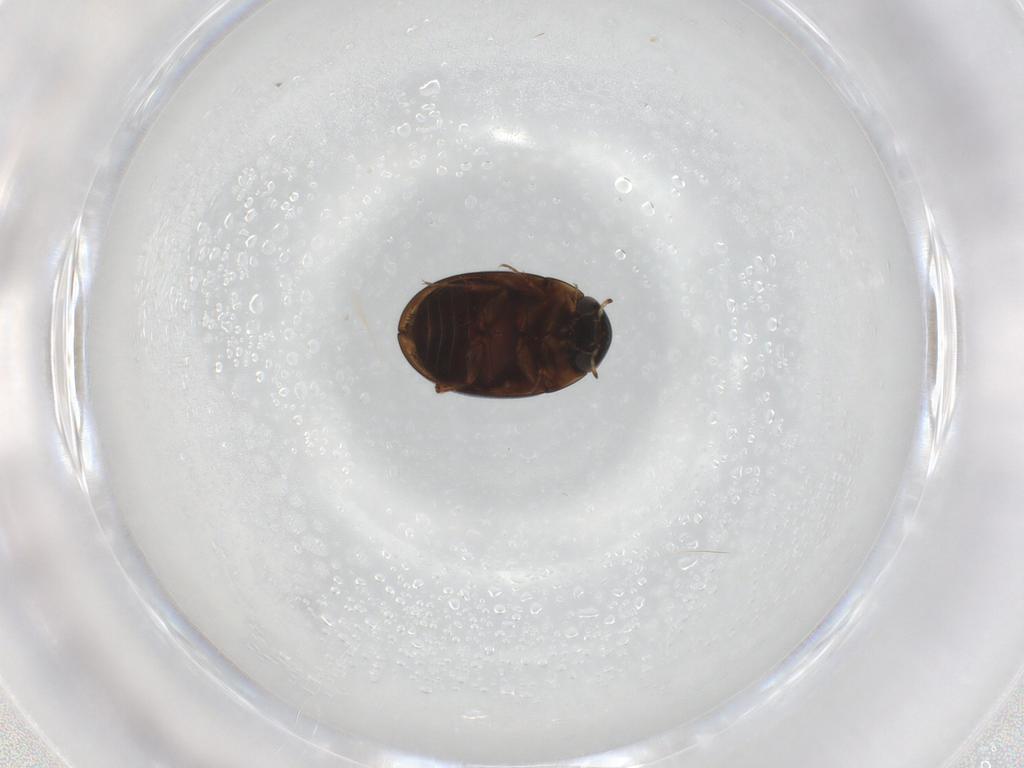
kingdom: Animalia
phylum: Arthropoda
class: Insecta
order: Coleoptera
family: Hydrophilidae
